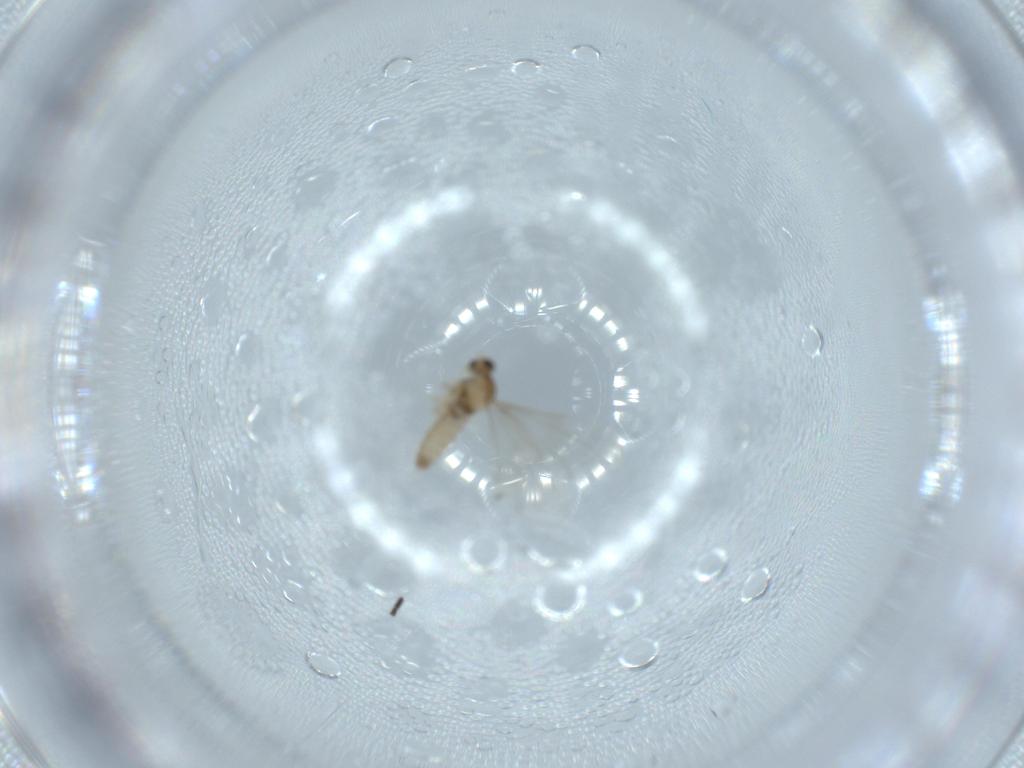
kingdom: Animalia
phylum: Arthropoda
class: Insecta
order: Diptera
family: Cecidomyiidae
